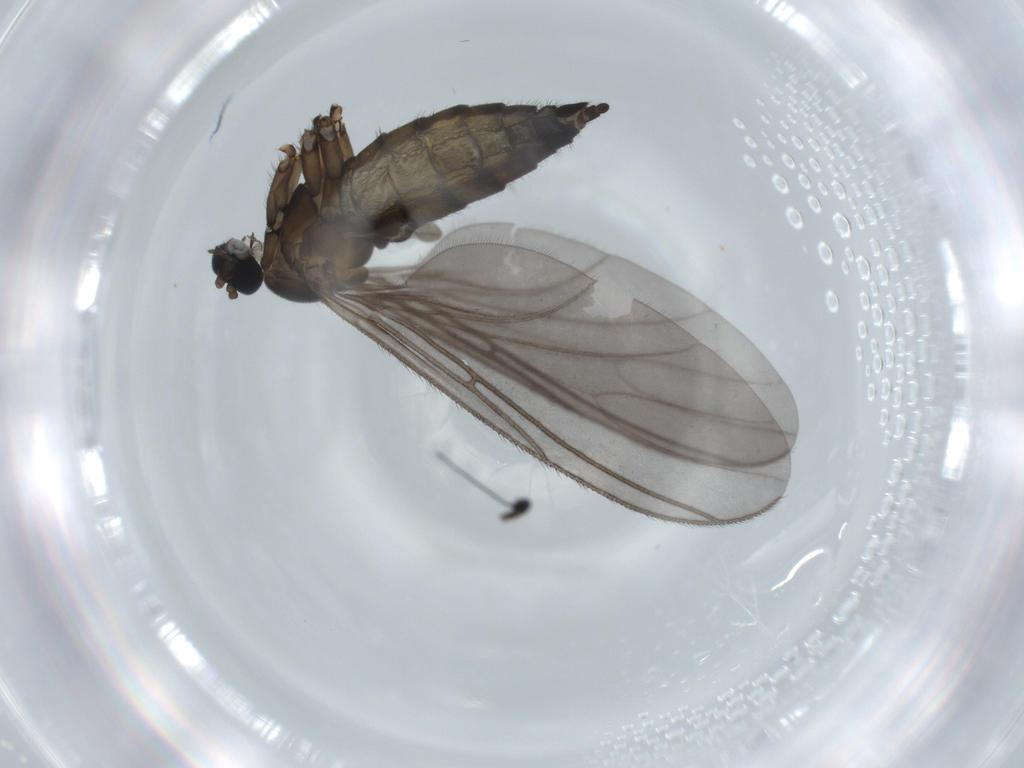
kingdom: Animalia
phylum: Arthropoda
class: Insecta
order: Diptera
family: Sciaridae
